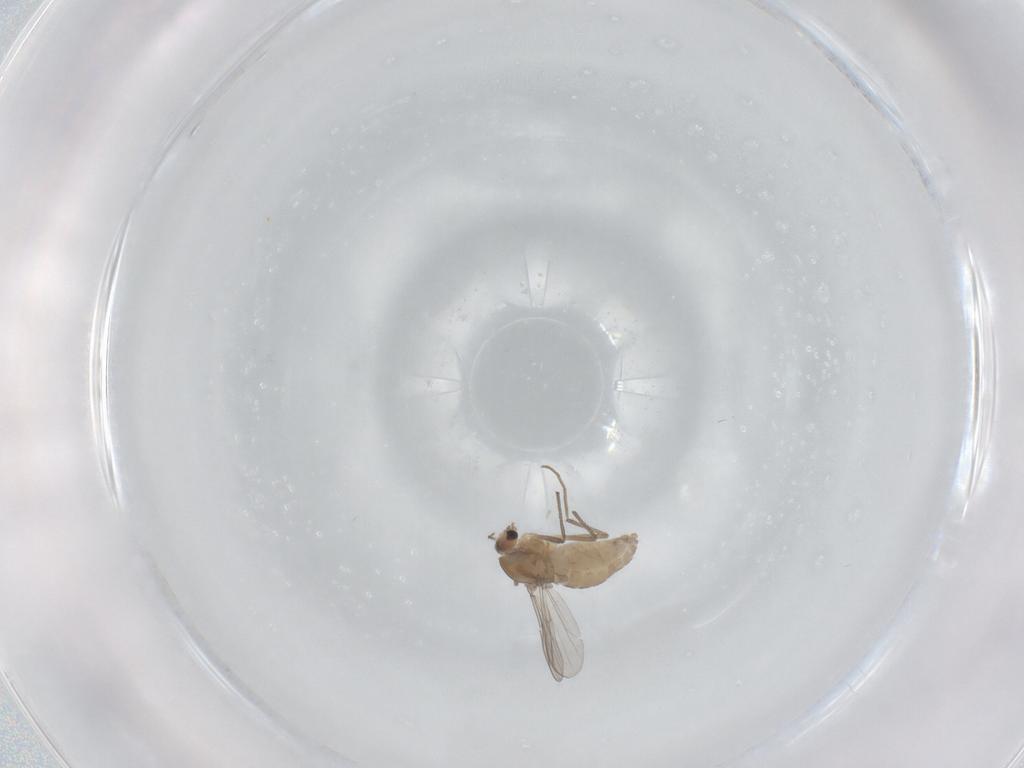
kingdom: Animalia
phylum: Arthropoda
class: Insecta
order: Diptera
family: Chironomidae
